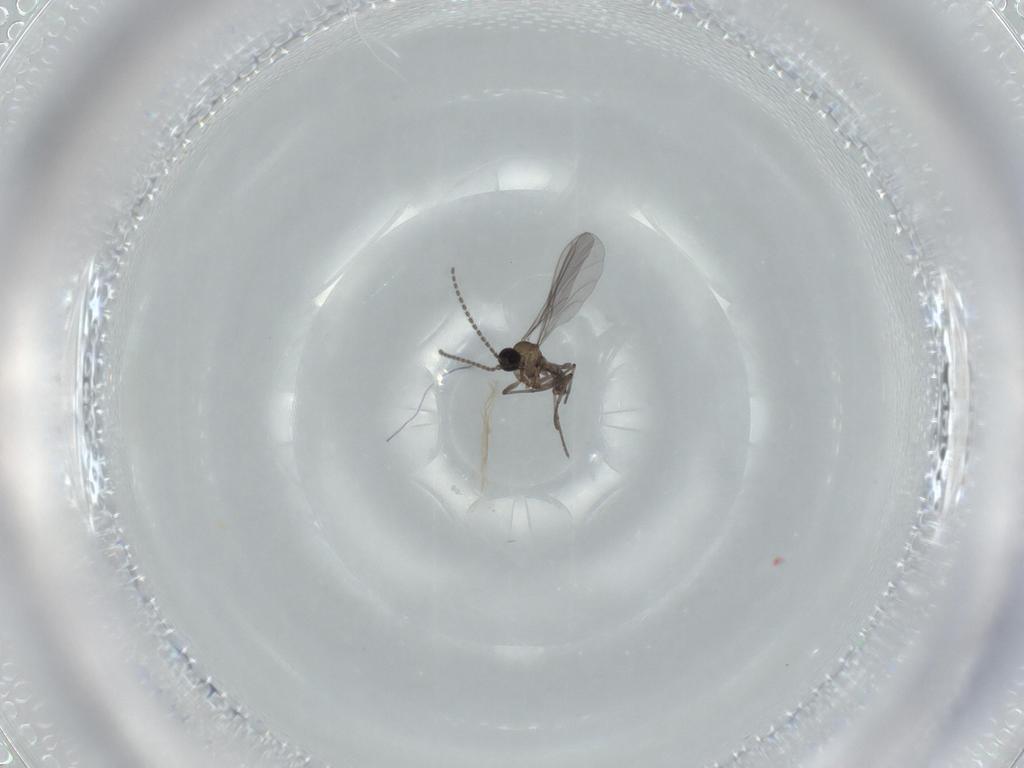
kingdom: Animalia
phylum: Arthropoda
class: Insecta
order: Diptera
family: Sciaridae
